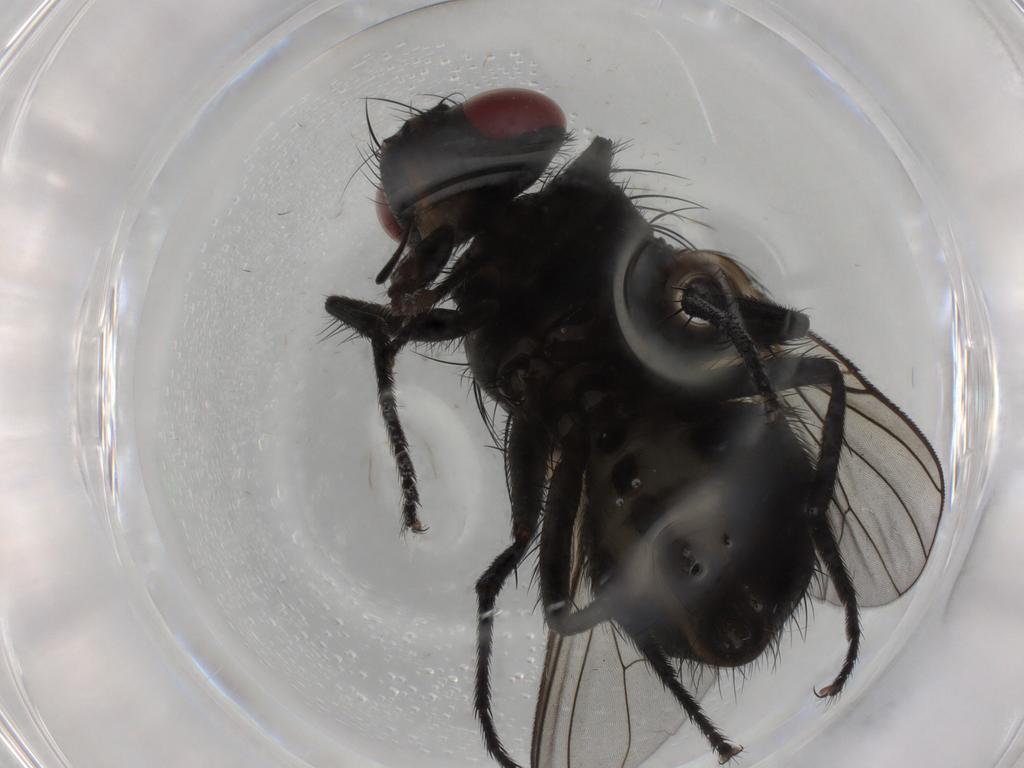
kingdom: Animalia
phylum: Arthropoda
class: Insecta
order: Diptera
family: Muscidae
